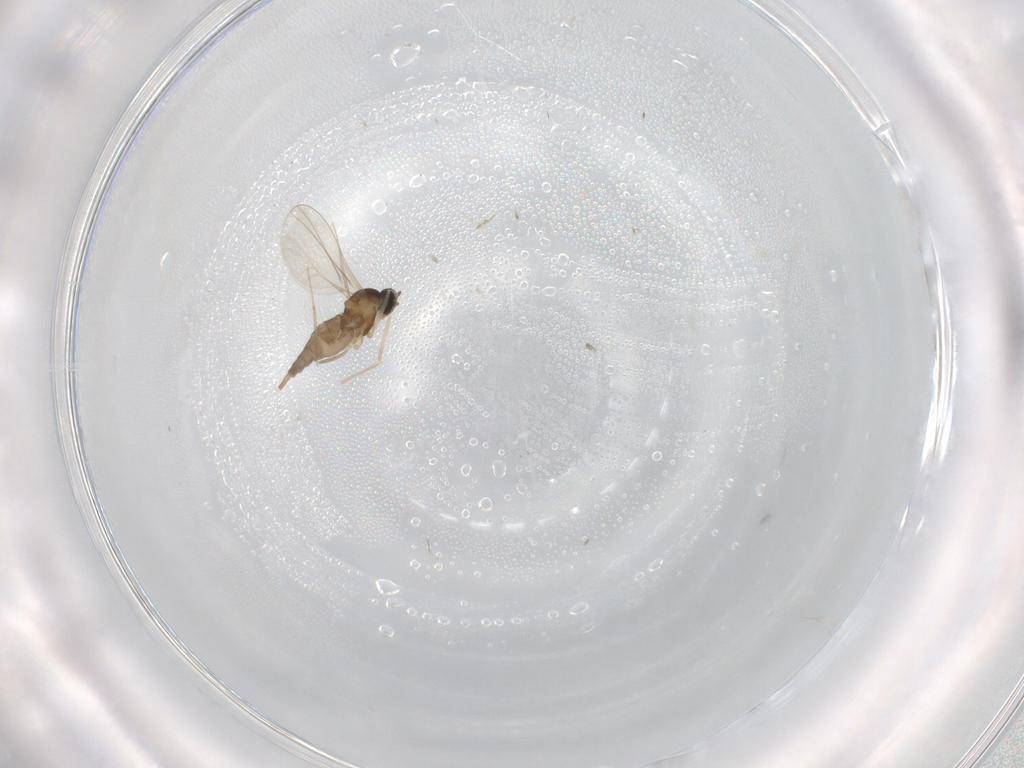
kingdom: Animalia
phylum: Arthropoda
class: Insecta
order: Diptera
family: Cecidomyiidae
